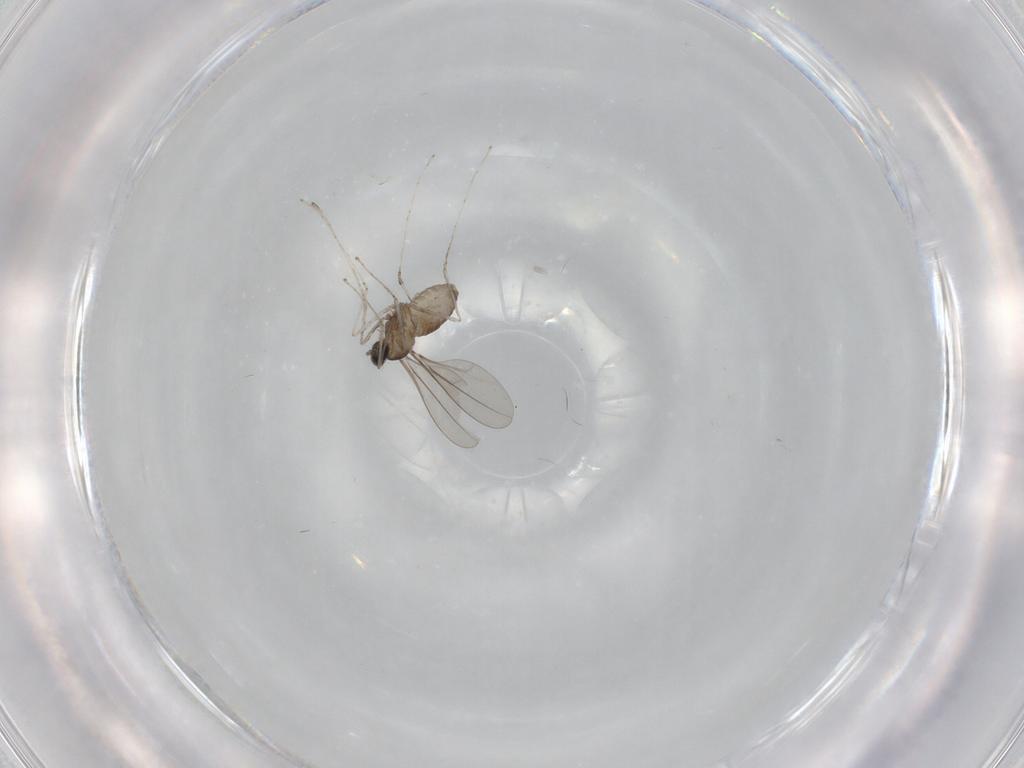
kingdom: Animalia
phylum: Arthropoda
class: Insecta
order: Diptera
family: Cecidomyiidae
